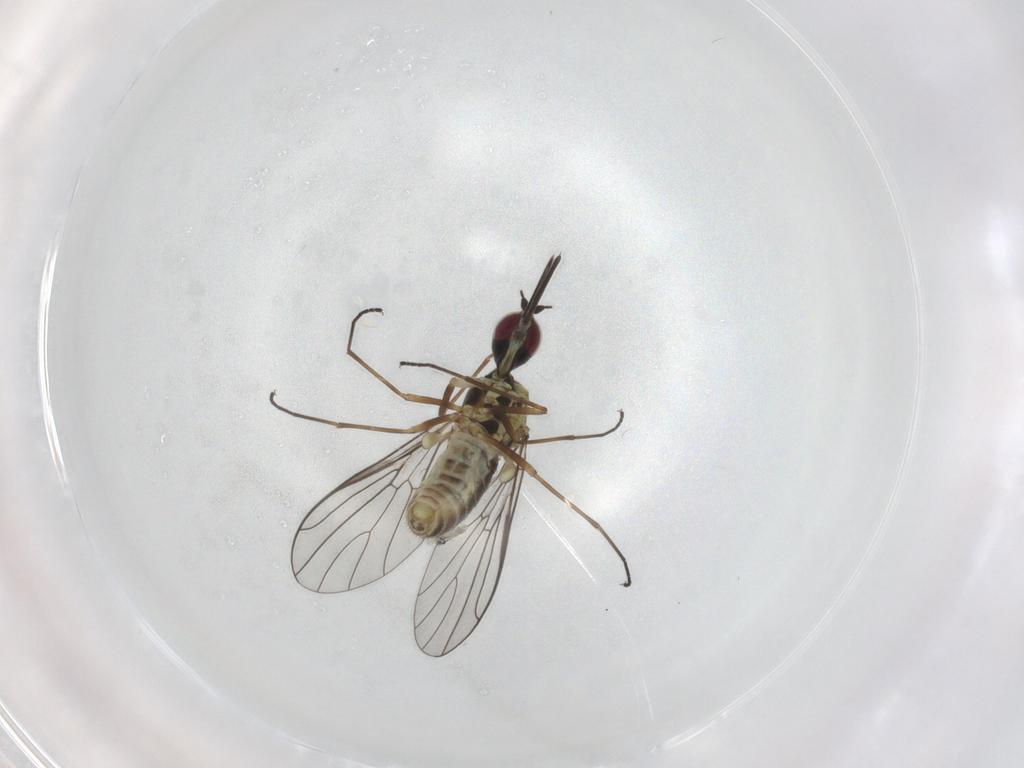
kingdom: Animalia
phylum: Arthropoda
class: Insecta
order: Diptera
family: Tachinidae
